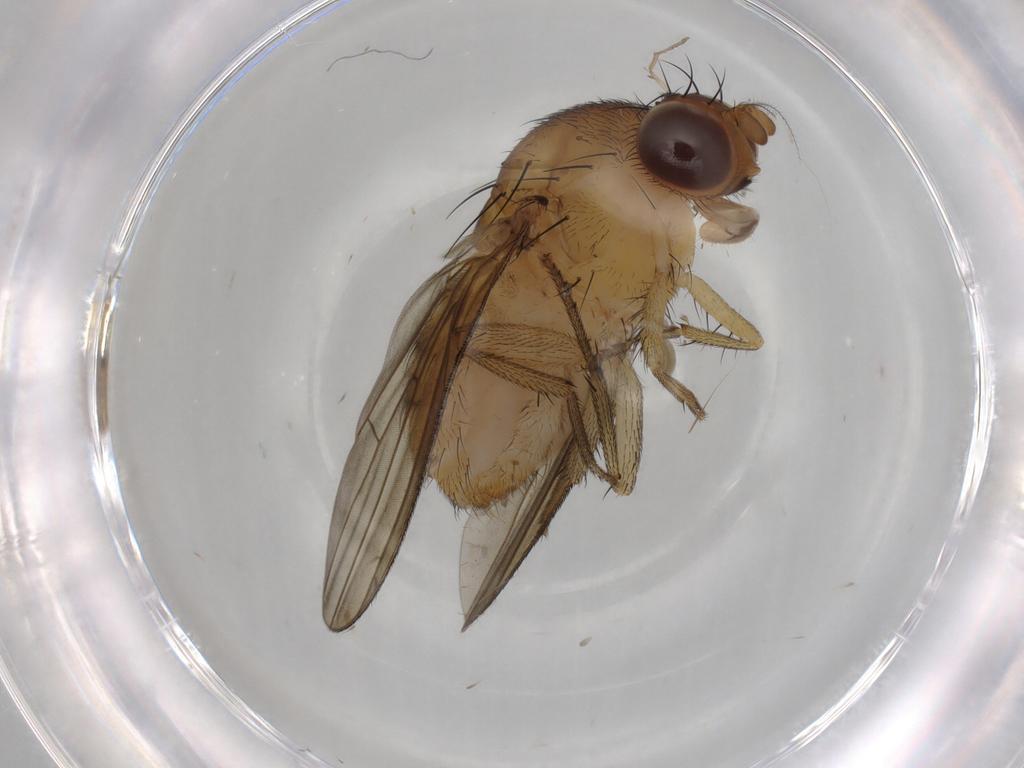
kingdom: Animalia
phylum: Arthropoda
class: Insecta
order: Diptera
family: Lauxaniidae
